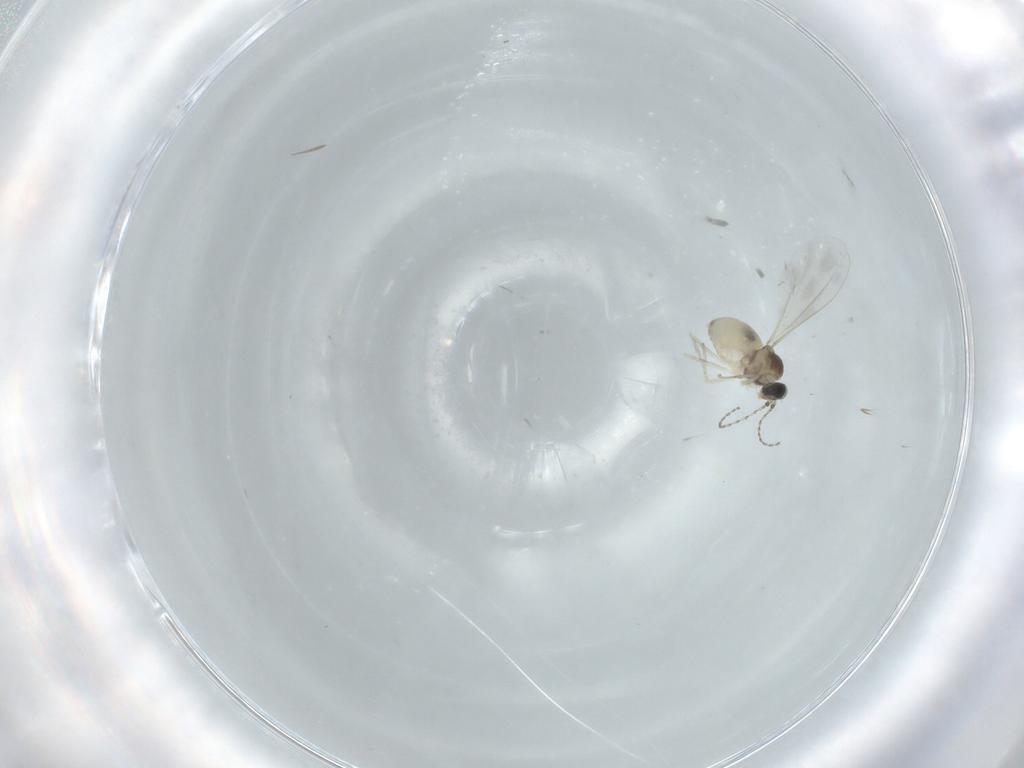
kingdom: Animalia
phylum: Arthropoda
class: Insecta
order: Diptera
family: Cecidomyiidae
